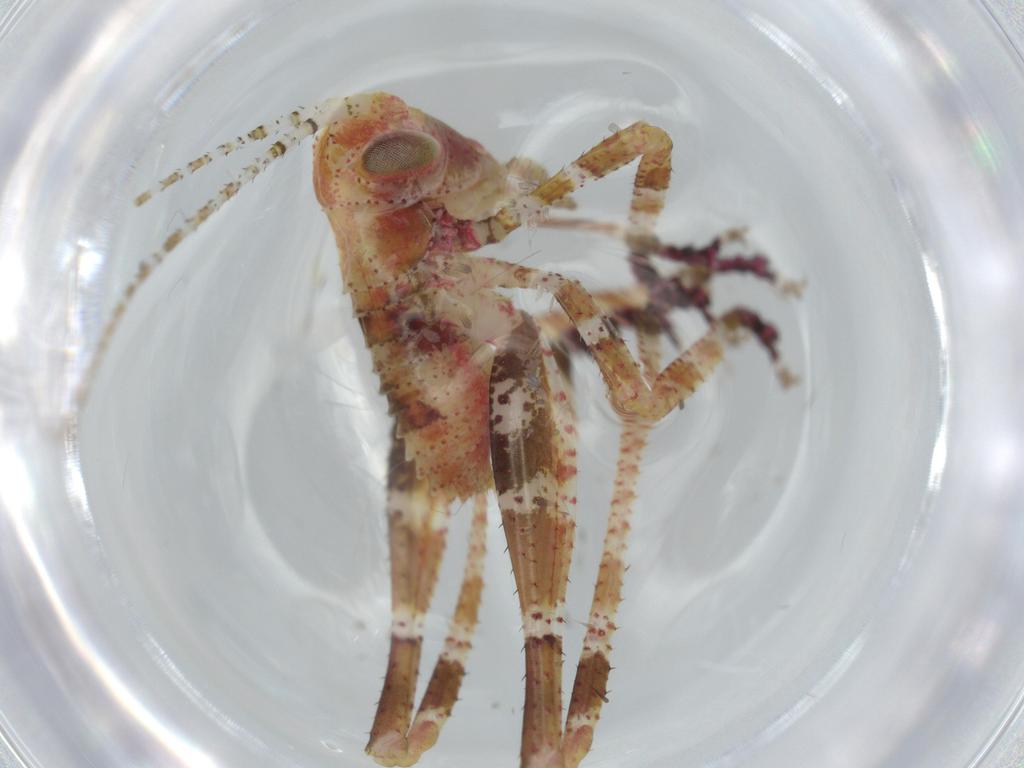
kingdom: Animalia
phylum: Arthropoda
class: Insecta
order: Orthoptera
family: Tettigoniidae
